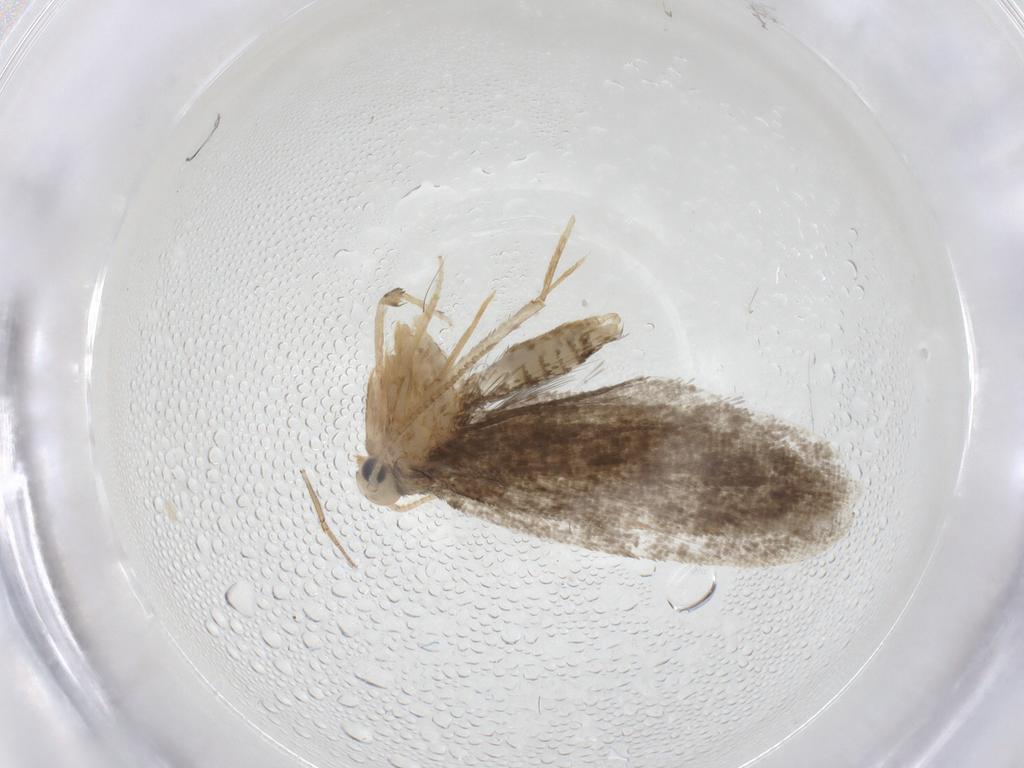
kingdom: Animalia
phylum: Arthropoda
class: Insecta
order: Lepidoptera
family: Psychidae
